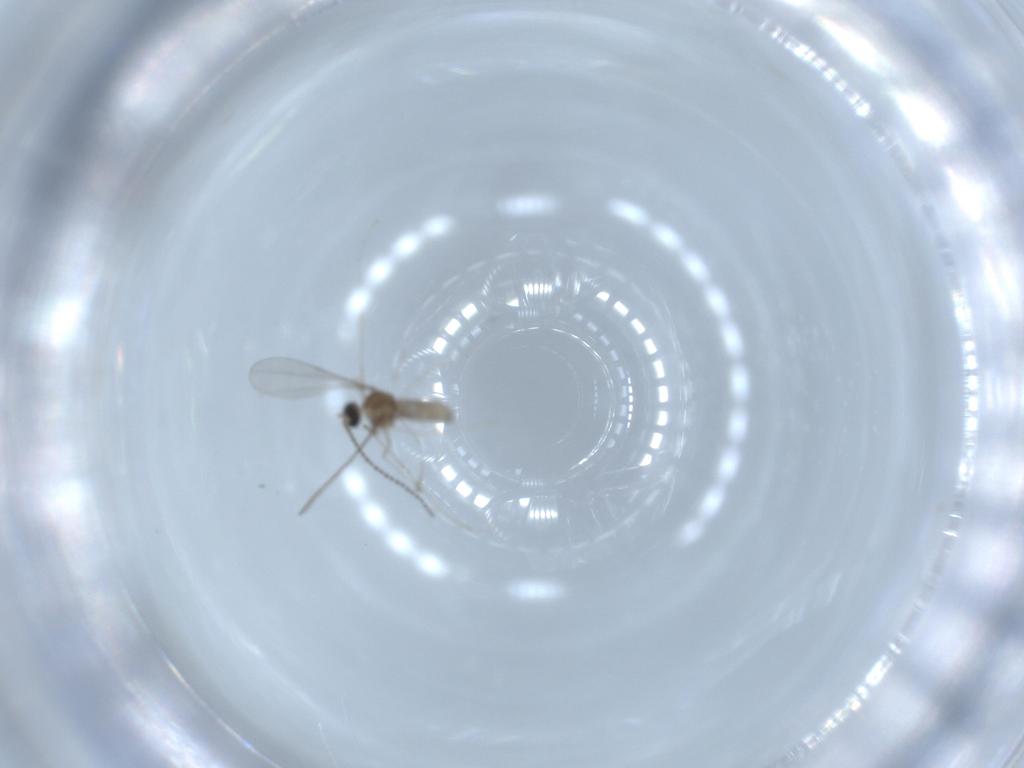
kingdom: Animalia
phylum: Arthropoda
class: Insecta
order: Diptera
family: Cecidomyiidae
